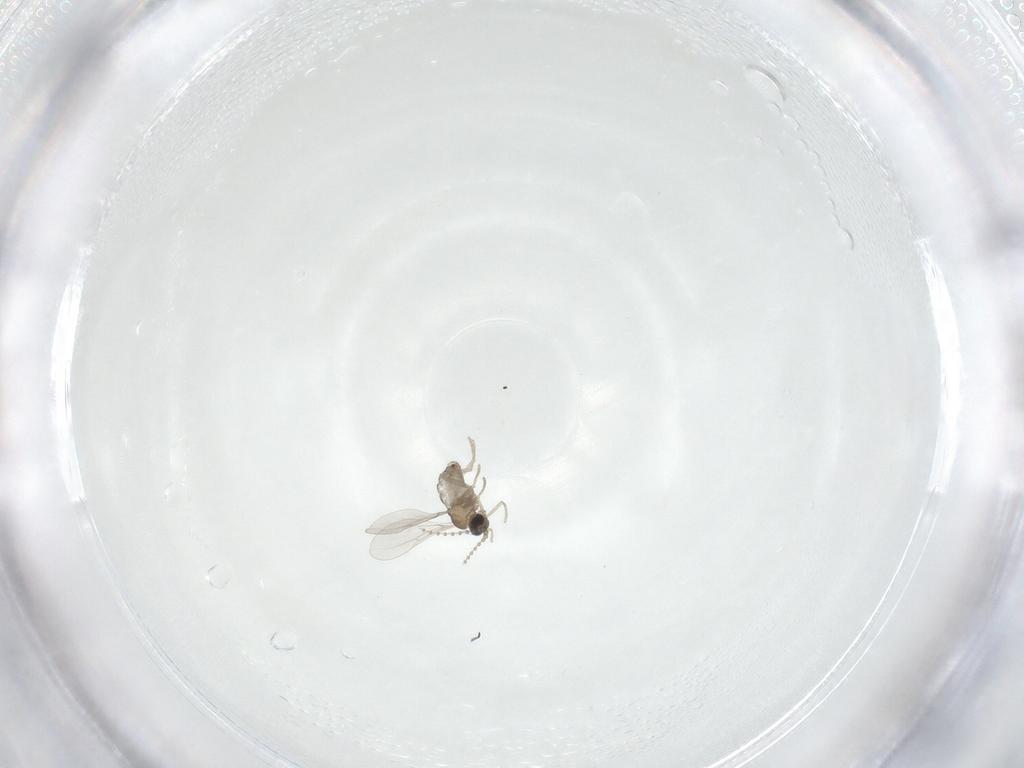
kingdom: Animalia
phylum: Arthropoda
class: Insecta
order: Diptera
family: Cecidomyiidae
